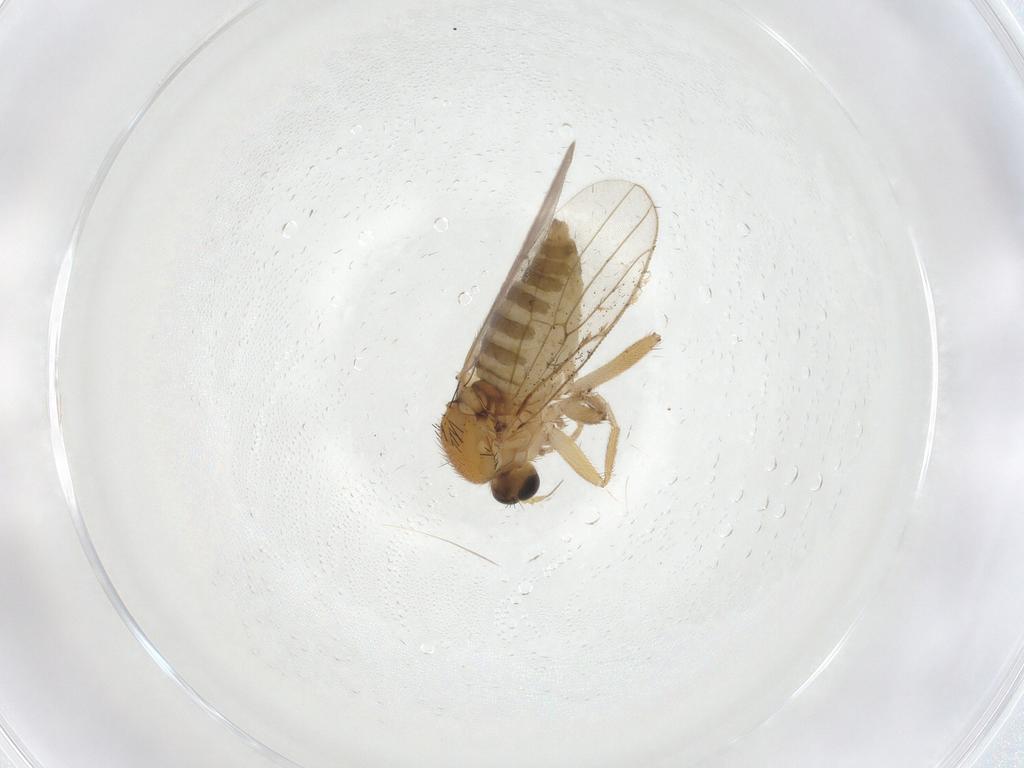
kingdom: Animalia
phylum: Arthropoda
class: Insecta
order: Diptera
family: Hybotidae
